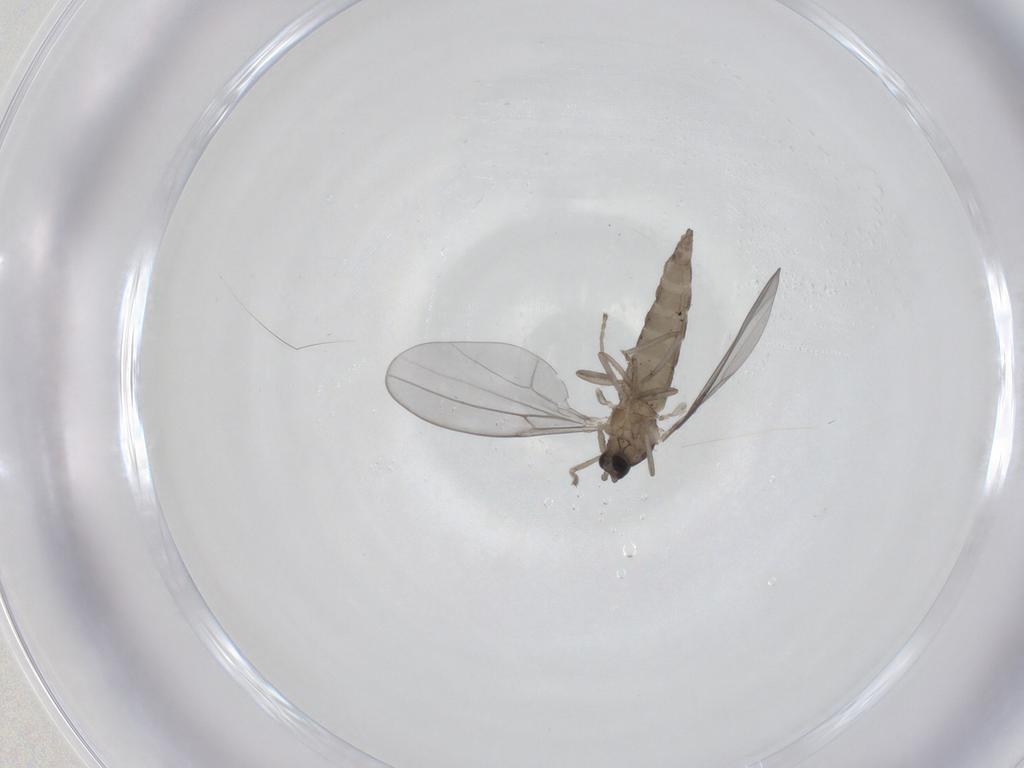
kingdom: Animalia
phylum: Arthropoda
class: Insecta
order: Diptera
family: Cecidomyiidae
